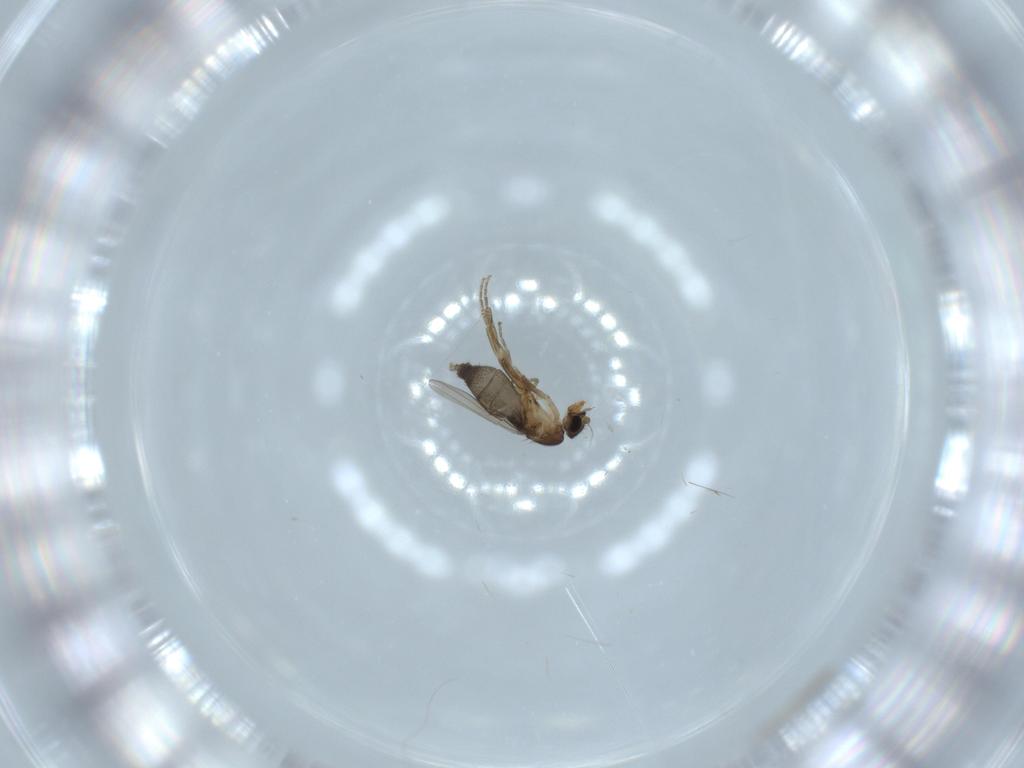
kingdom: Animalia
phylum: Arthropoda
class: Insecta
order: Diptera
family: Phoridae
